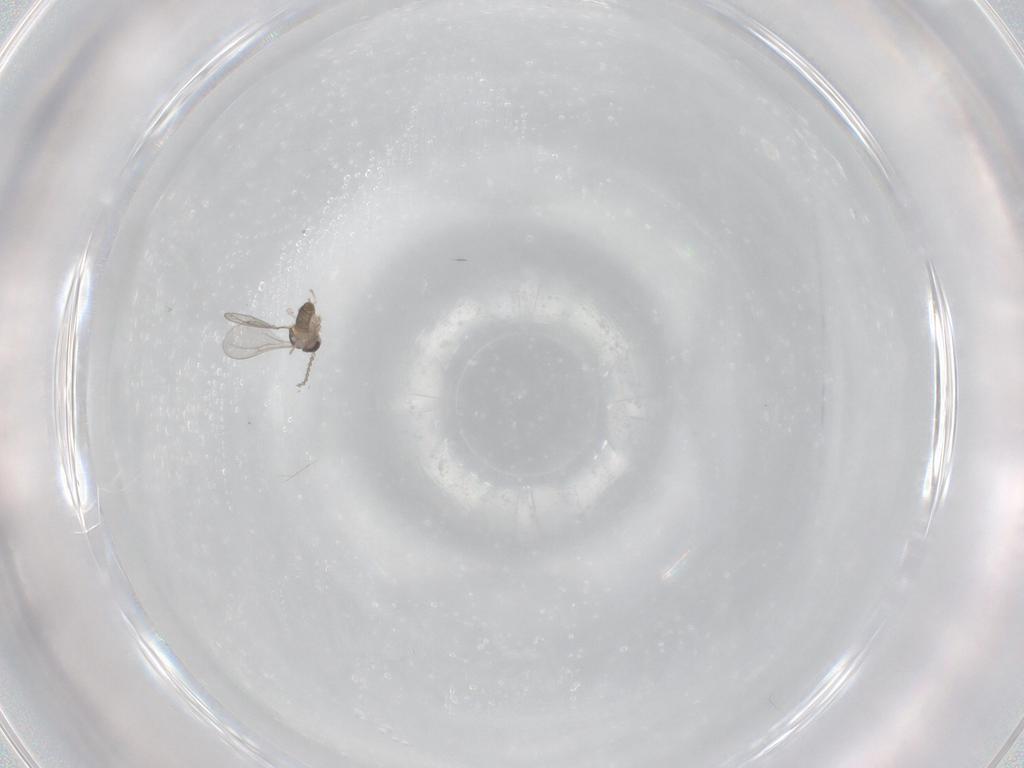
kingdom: Animalia
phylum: Arthropoda
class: Insecta
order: Diptera
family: Cecidomyiidae
